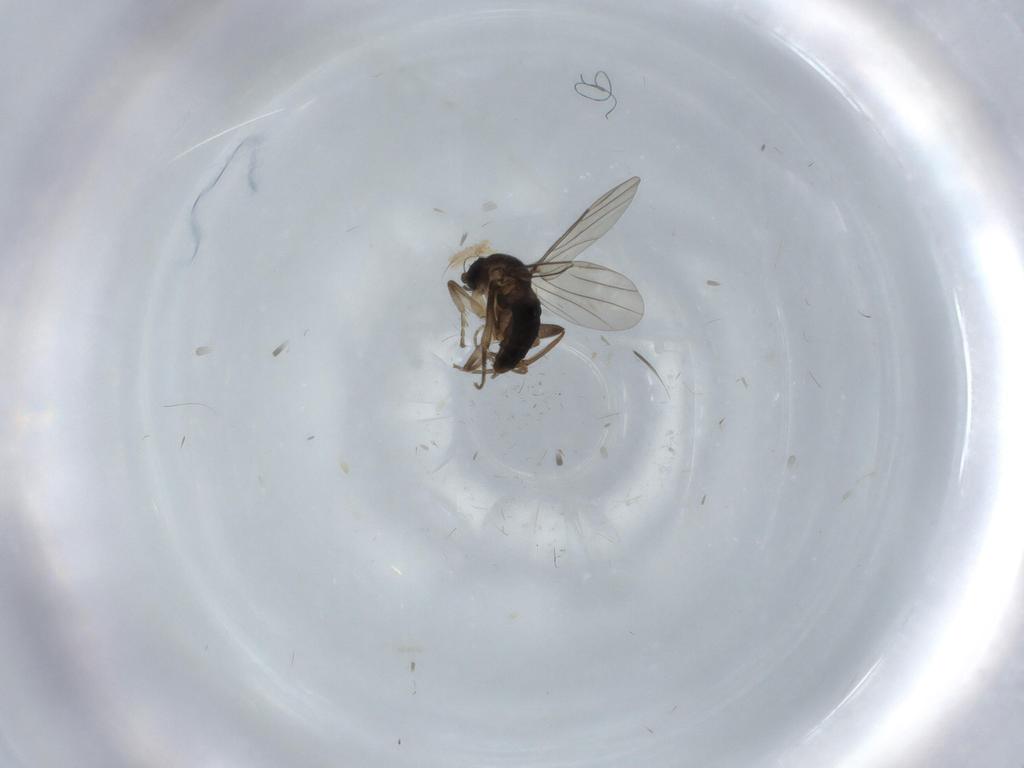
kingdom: Animalia
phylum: Arthropoda
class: Insecta
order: Diptera
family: Phoridae
